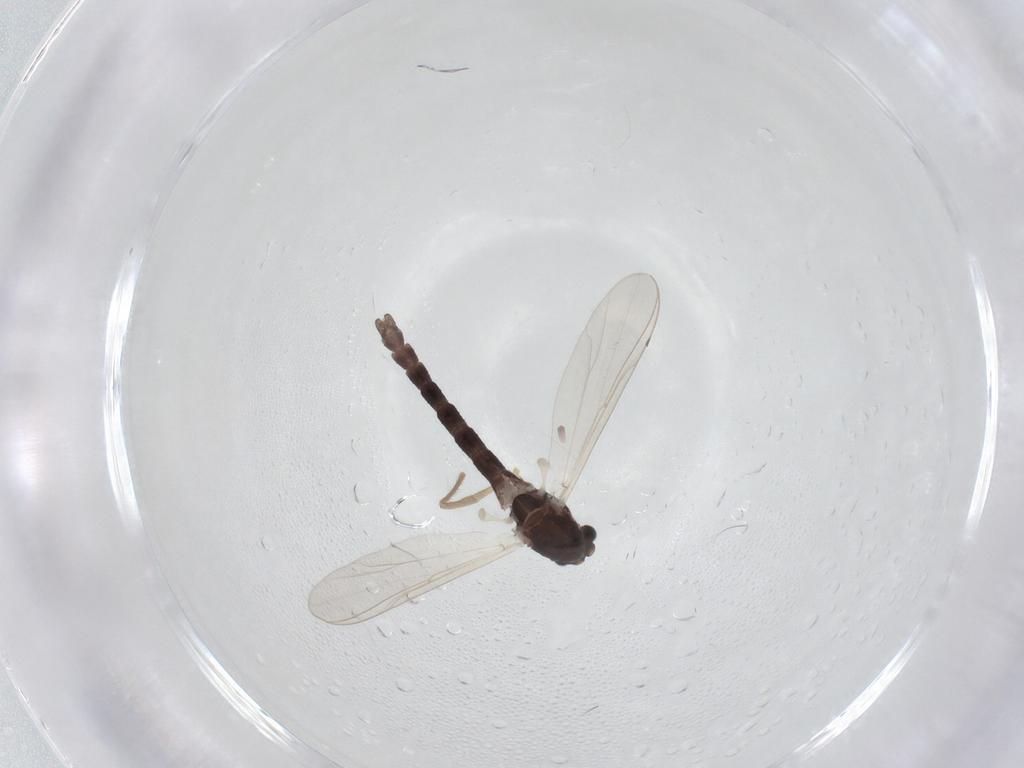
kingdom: Animalia
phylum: Arthropoda
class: Insecta
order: Diptera
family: Chironomidae
